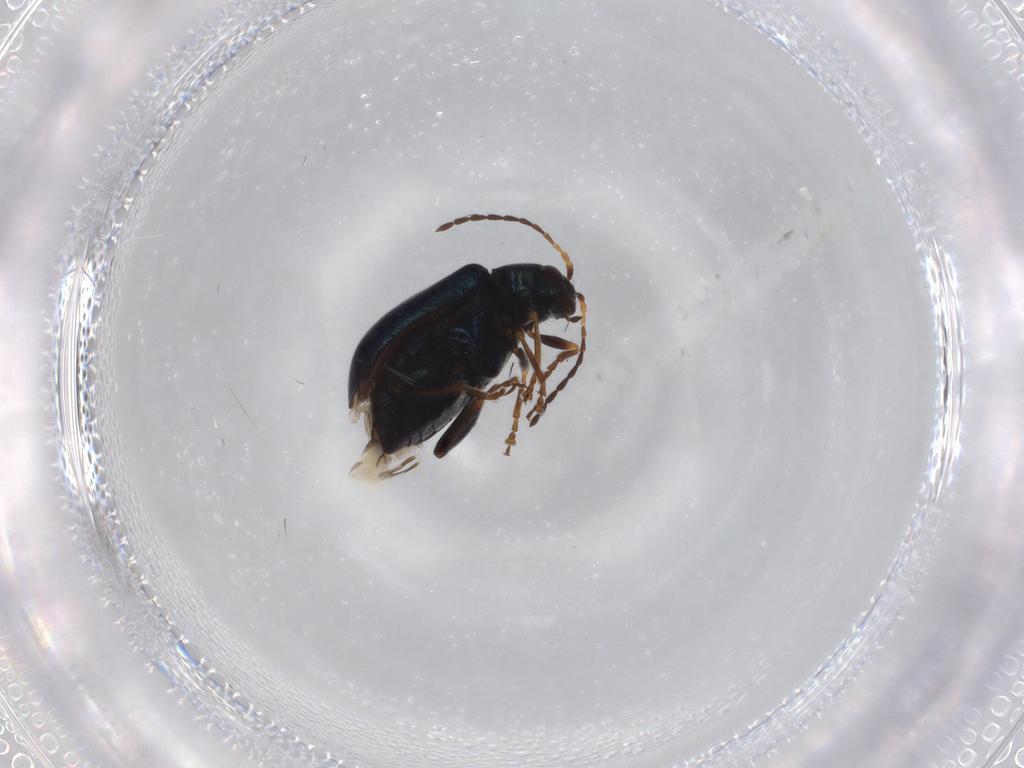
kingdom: Animalia
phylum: Arthropoda
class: Insecta
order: Coleoptera
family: Chrysomelidae
